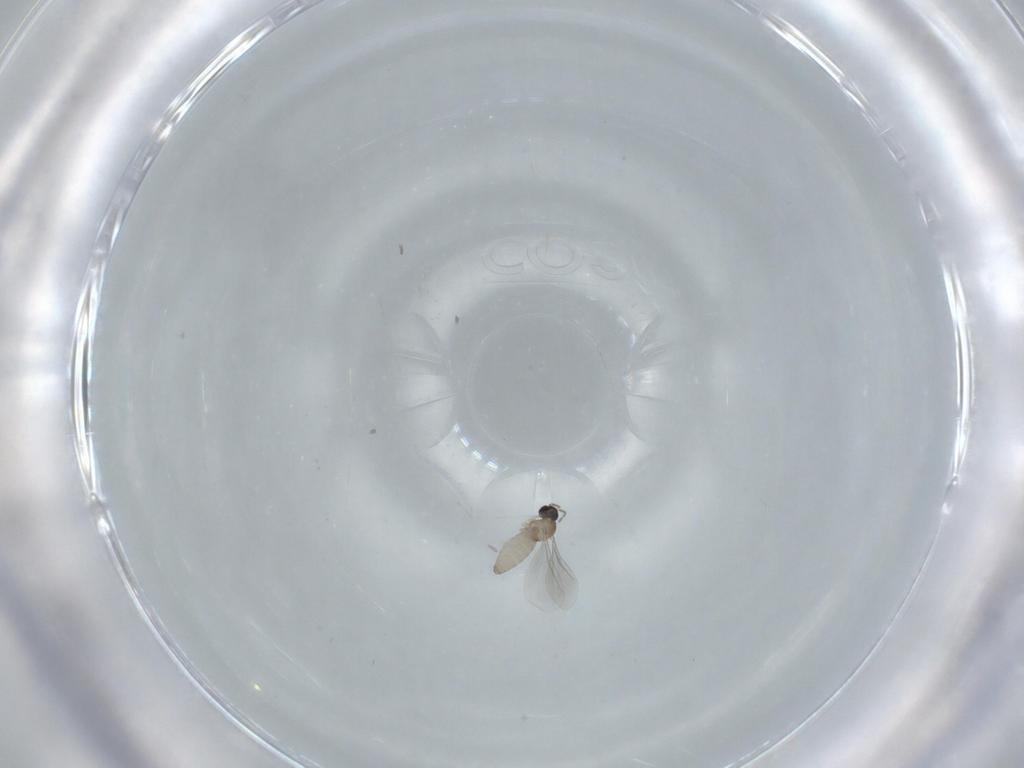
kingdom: Animalia
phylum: Arthropoda
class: Insecta
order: Diptera
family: Cecidomyiidae
